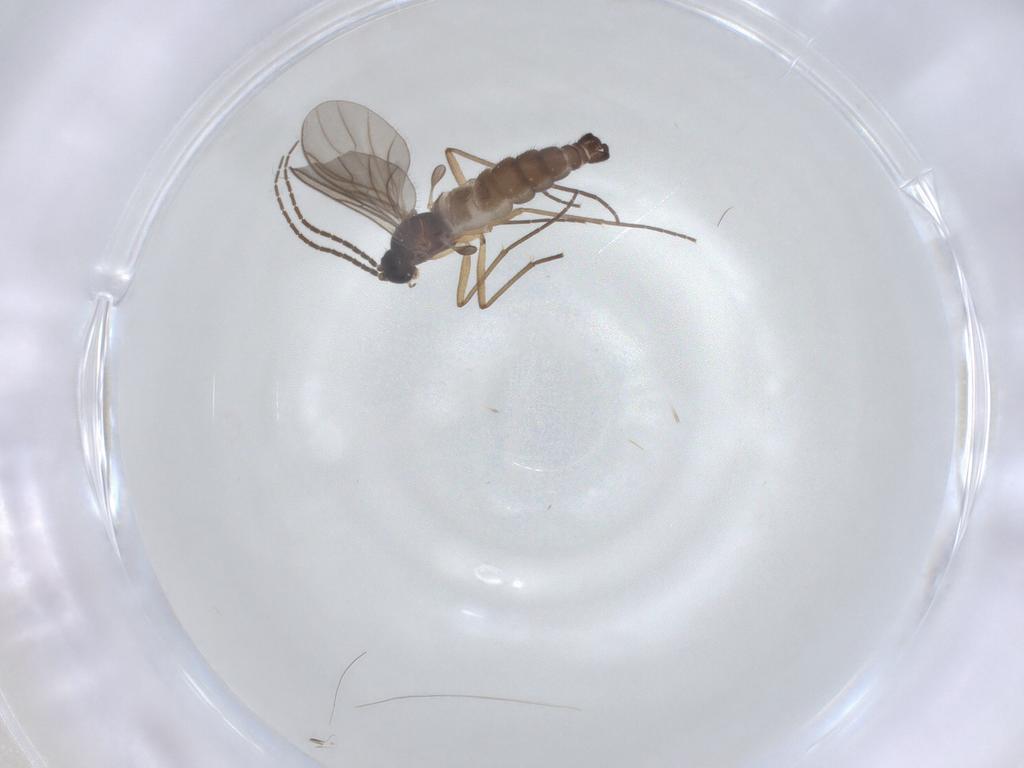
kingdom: Animalia
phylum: Arthropoda
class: Insecta
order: Diptera
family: Sciaridae
